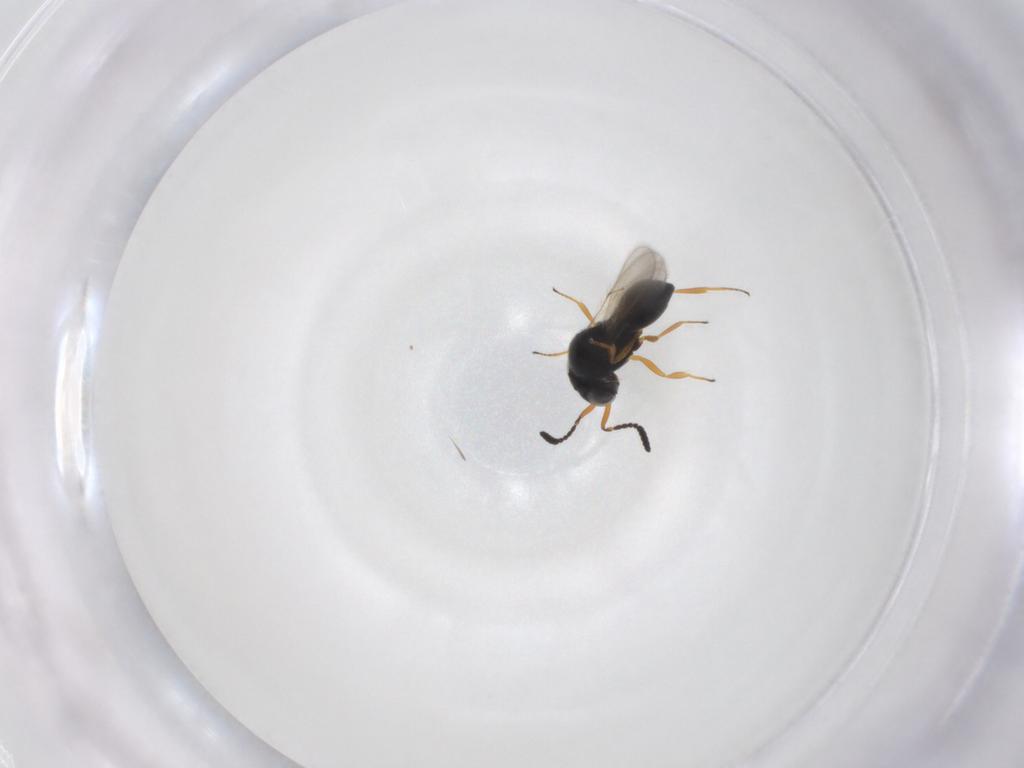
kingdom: Animalia
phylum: Arthropoda
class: Insecta
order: Hymenoptera
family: Scelionidae
